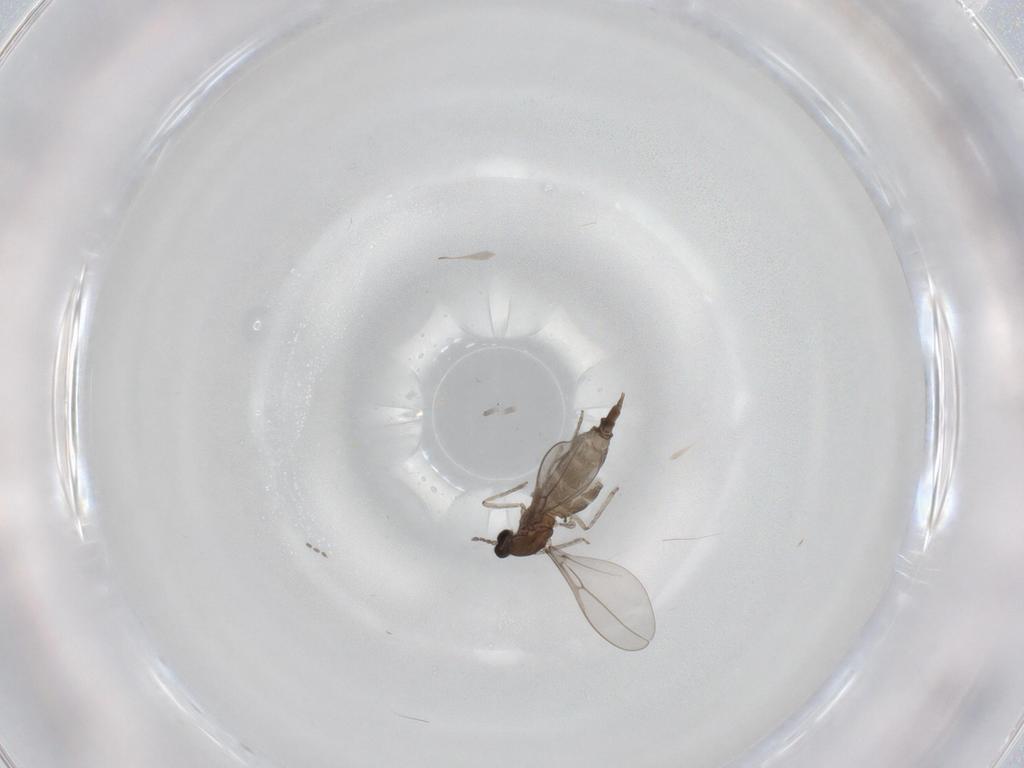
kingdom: Animalia
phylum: Arthropoda
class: Insecta
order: Diptera
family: Cecidomyiidae
